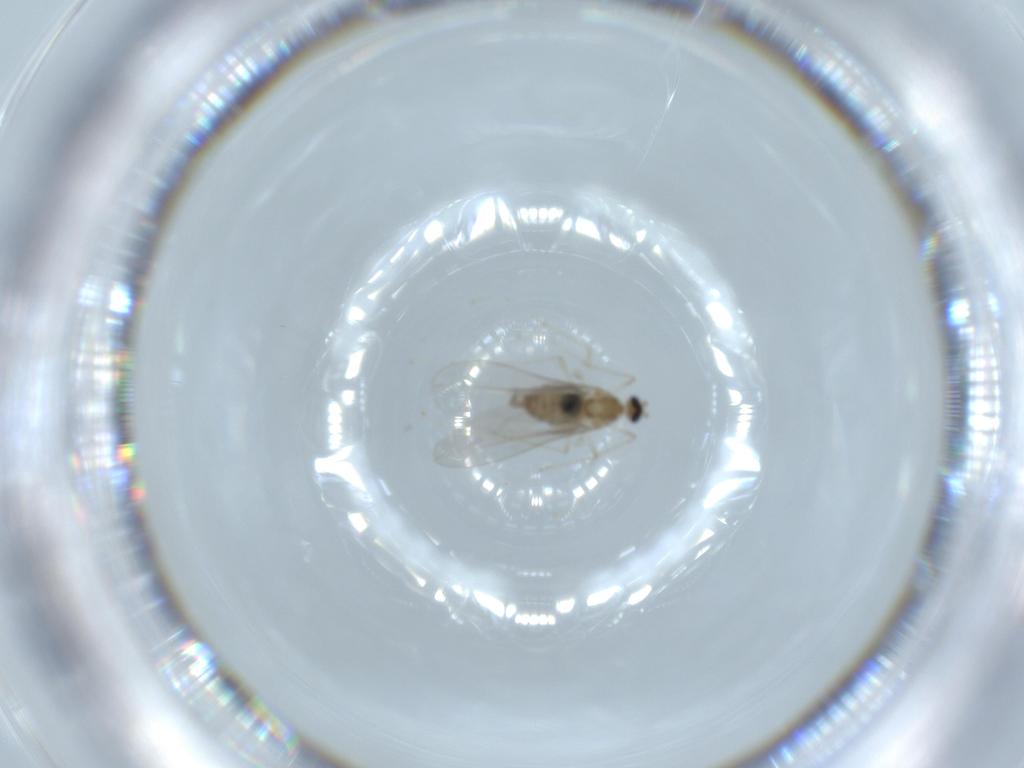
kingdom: Animalia
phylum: Arthropoda
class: Insecta
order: Diptera
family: Cecidomyiidae
